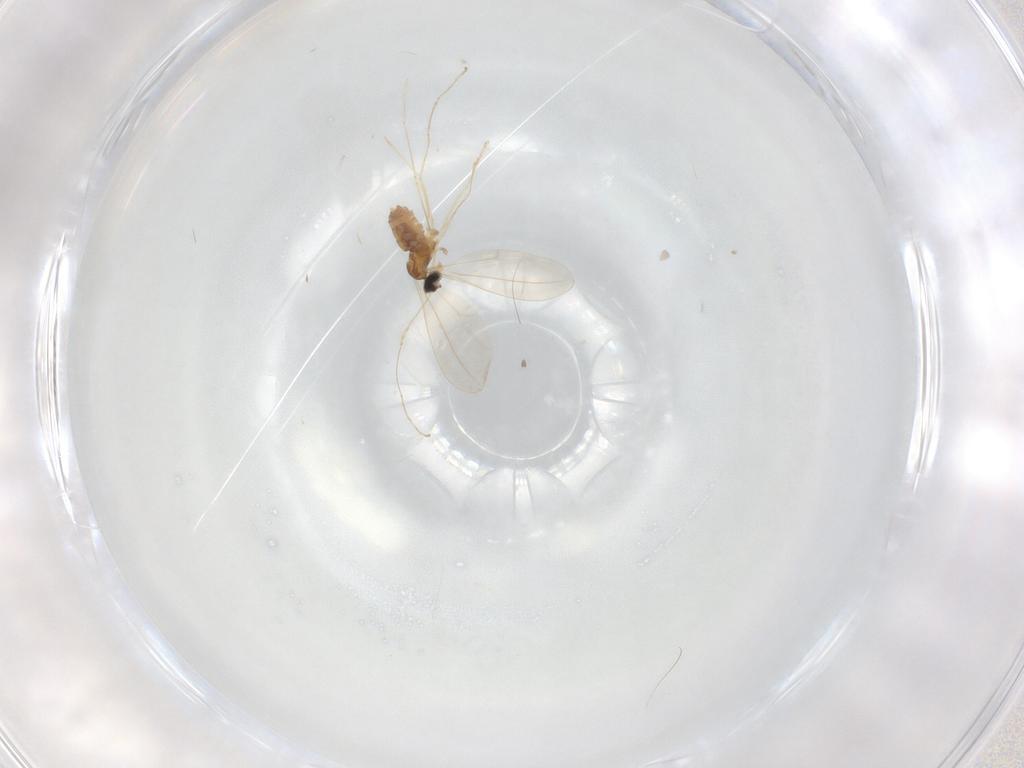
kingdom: Animalia
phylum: Arthropoda
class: Insecta
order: Diptera
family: Cecidomyiidae
